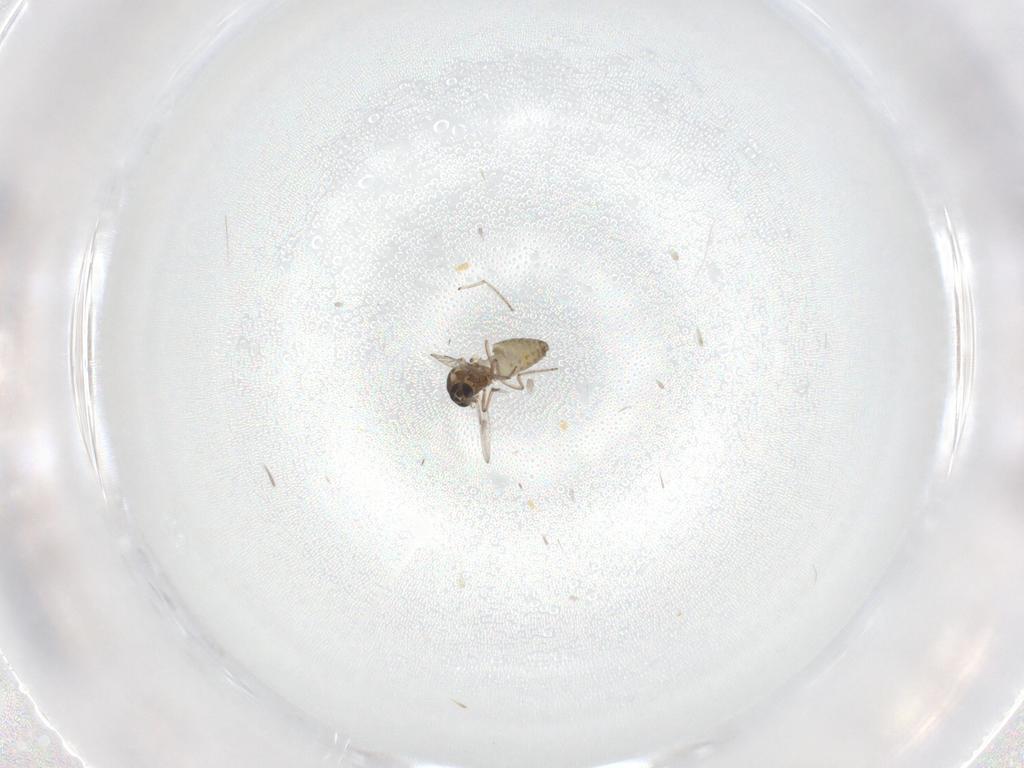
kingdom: Animalia
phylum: Arthropoda
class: Insecta
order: Diptera
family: Ceratopogonidae
